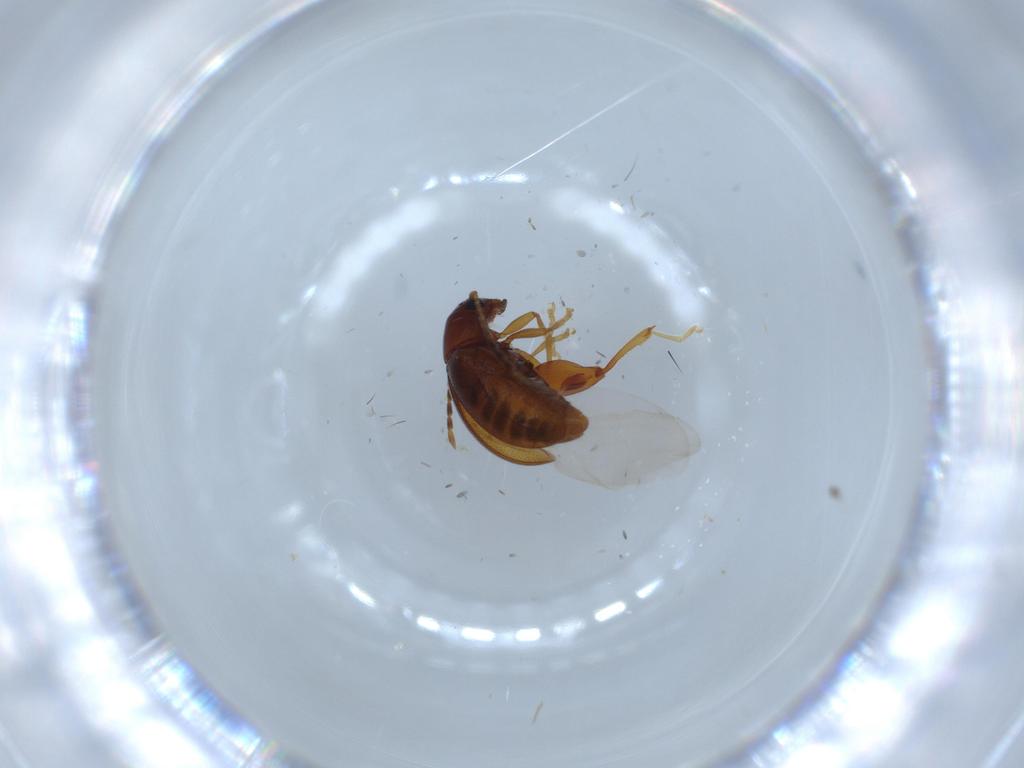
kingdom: Animalia
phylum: Arthropoda
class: Insecta
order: Coleoptera
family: Chrysomelidae
